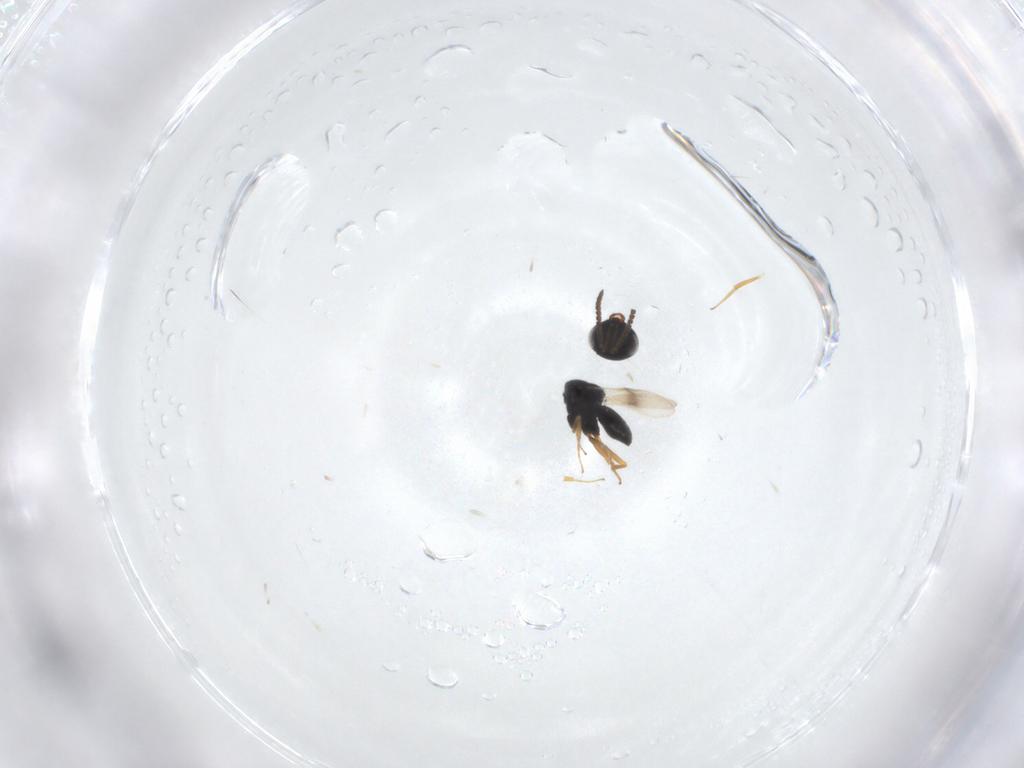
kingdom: Animalia
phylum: Arthropoda
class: Insecta
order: Hymenoptera
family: Scelionidae
